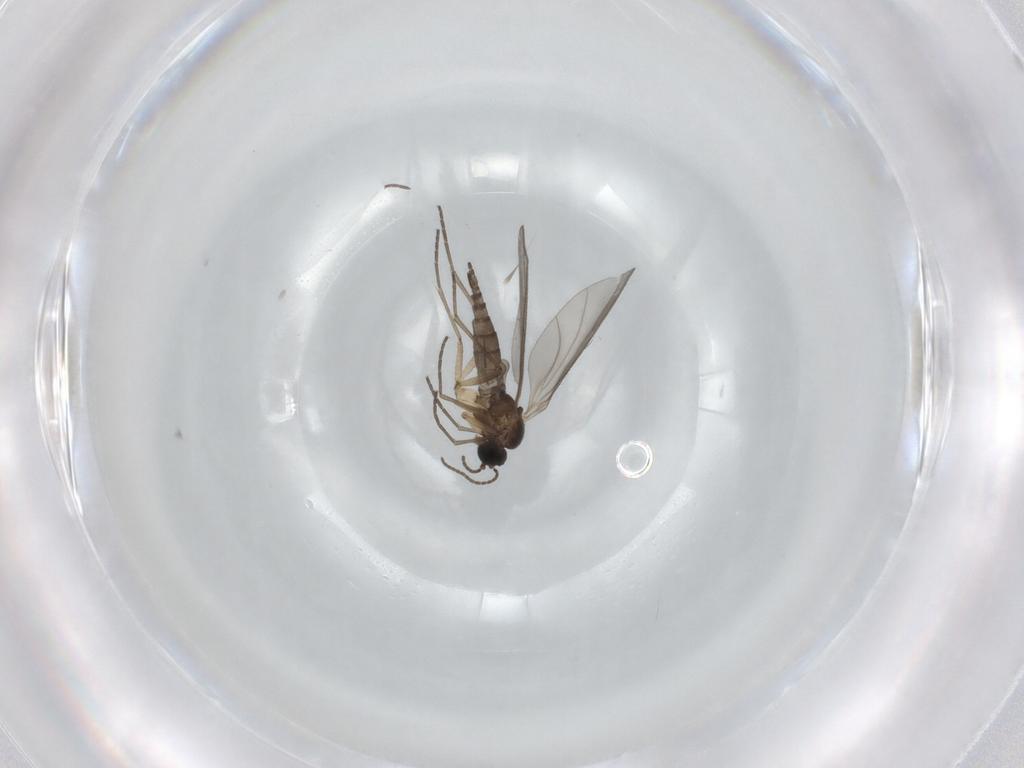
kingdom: Animalia
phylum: Arthropoda
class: Insecta
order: Diptera
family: Sciaridae
